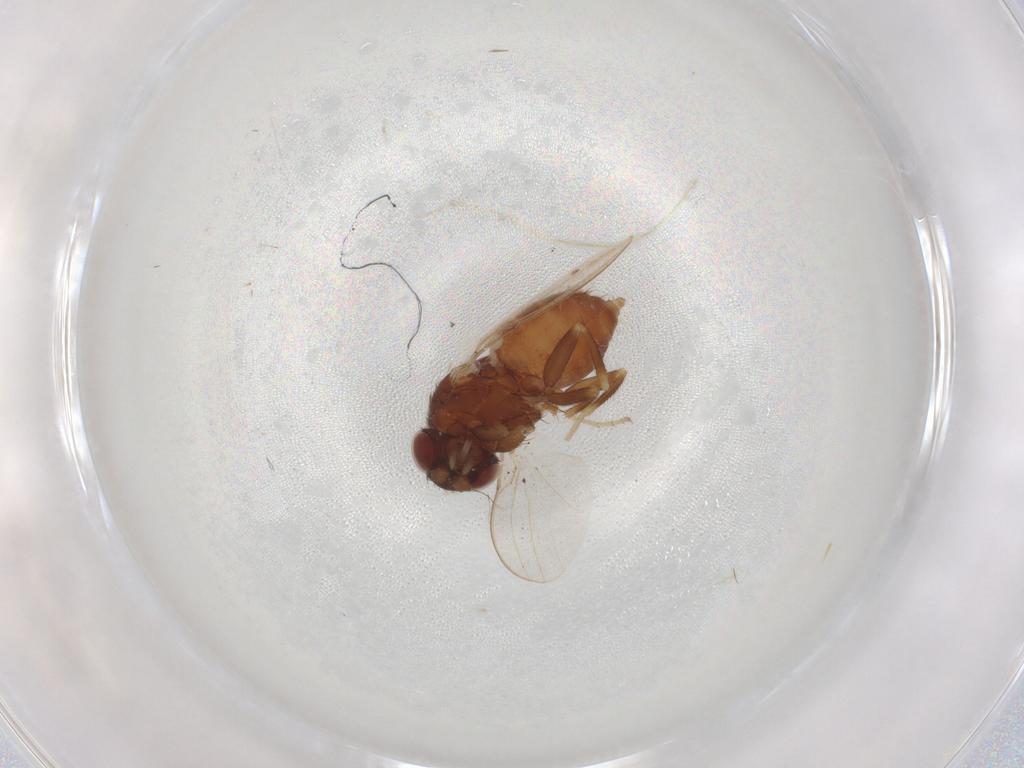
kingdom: Animalia
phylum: Arthropoda
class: Insecta
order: Diptera
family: Milichiidae
